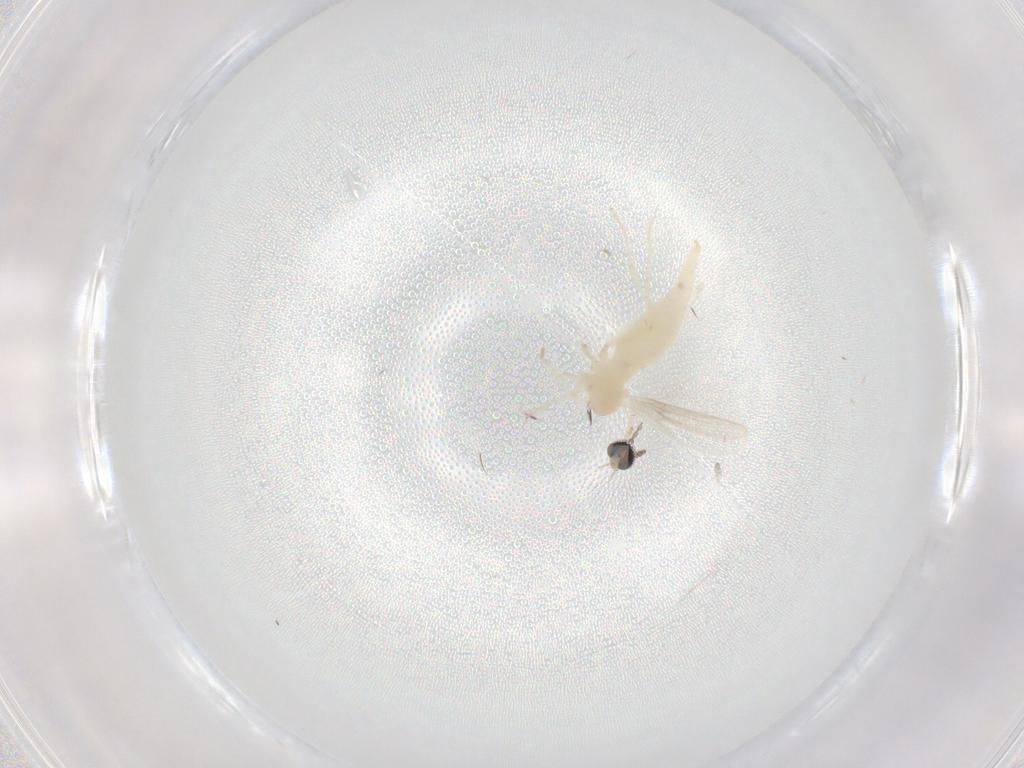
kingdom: Animalia
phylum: Arthropoda
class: Insecta
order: Diptera
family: Cecidomyiidae
